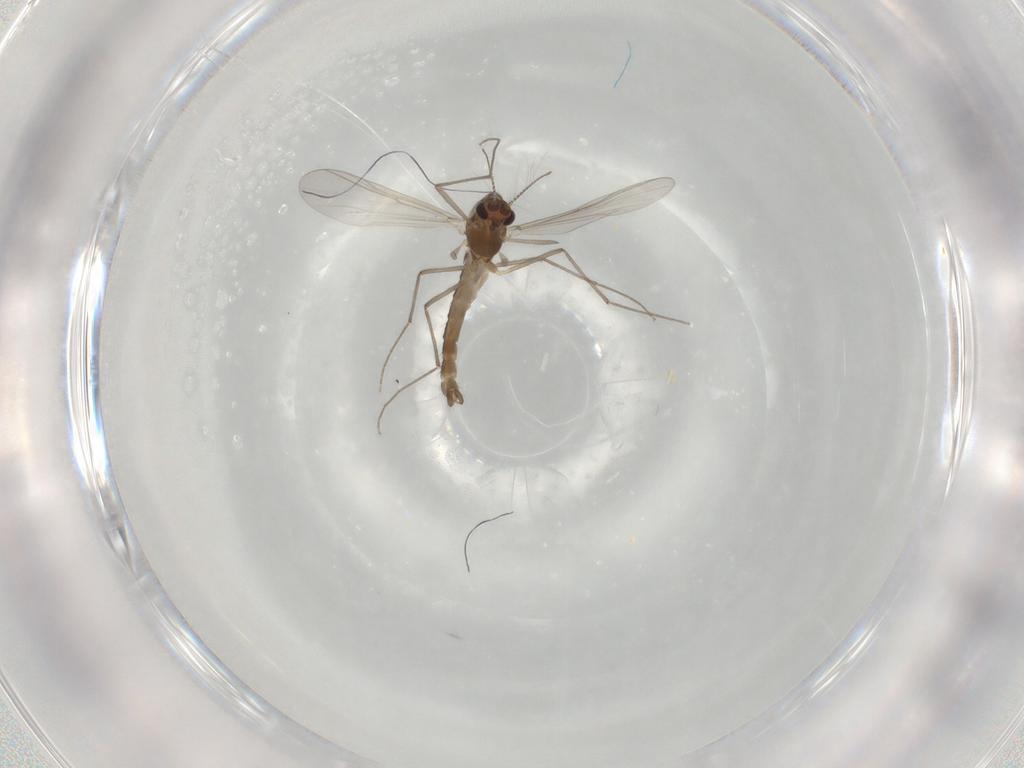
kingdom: Animalia
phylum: Arthropoda
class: Insecta
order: Diptera
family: Chironomidae
